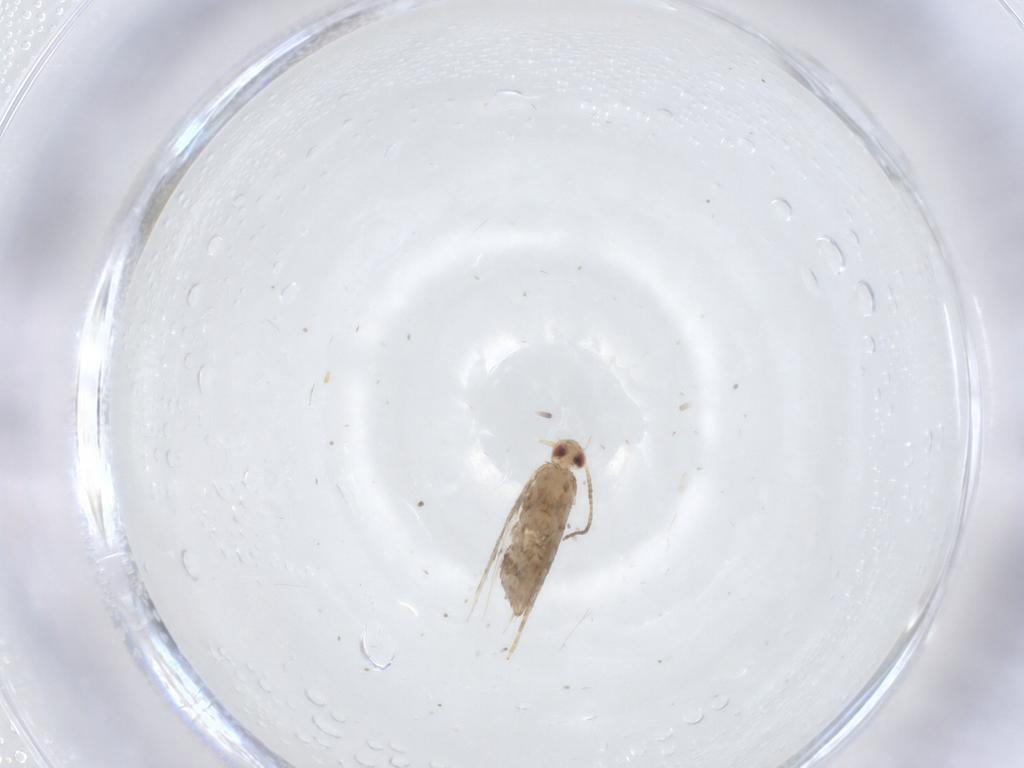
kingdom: Animalia
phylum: Arthropoda
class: Insecta
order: Lepidoptera
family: Gracillariidae
